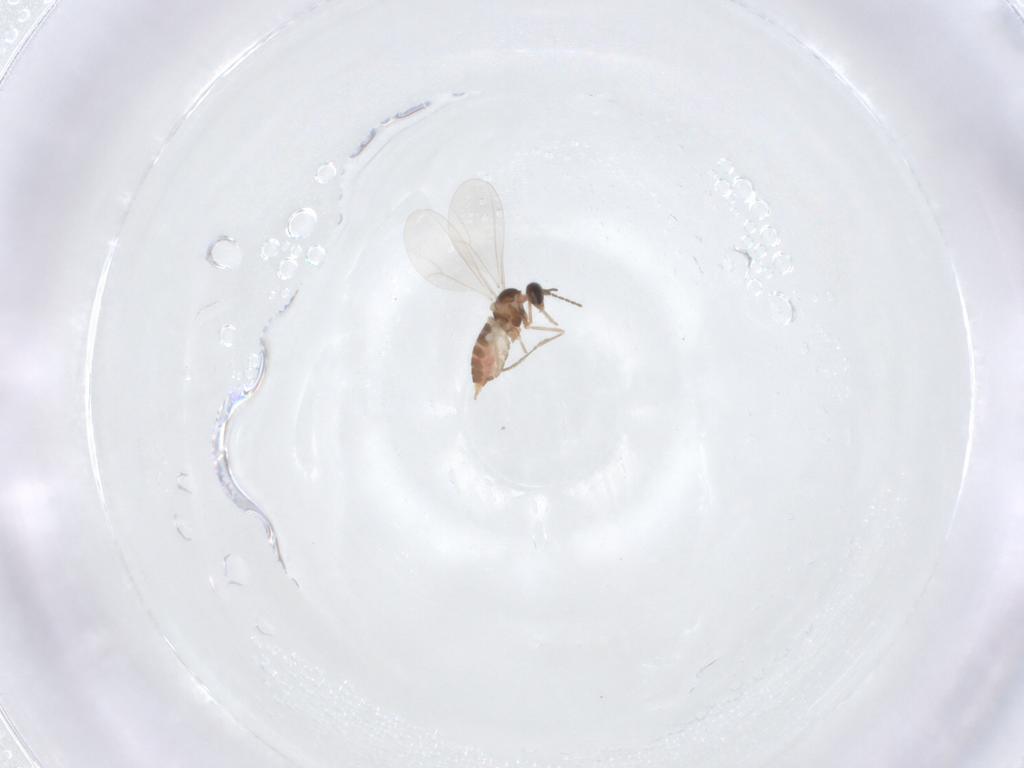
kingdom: Animalia
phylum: Arthropoda
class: Insecta
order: Diptera
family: Cecidomyiidae
